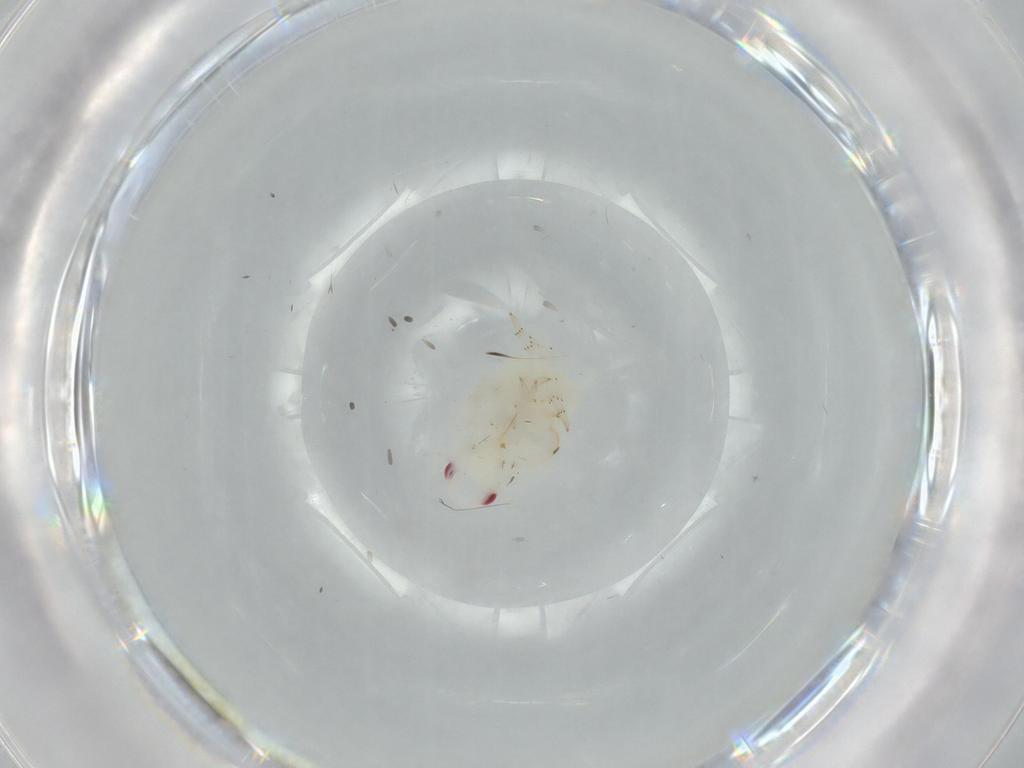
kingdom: Animalia
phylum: Arthropoda
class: Insecta
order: Hemiptera
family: Flatidae
